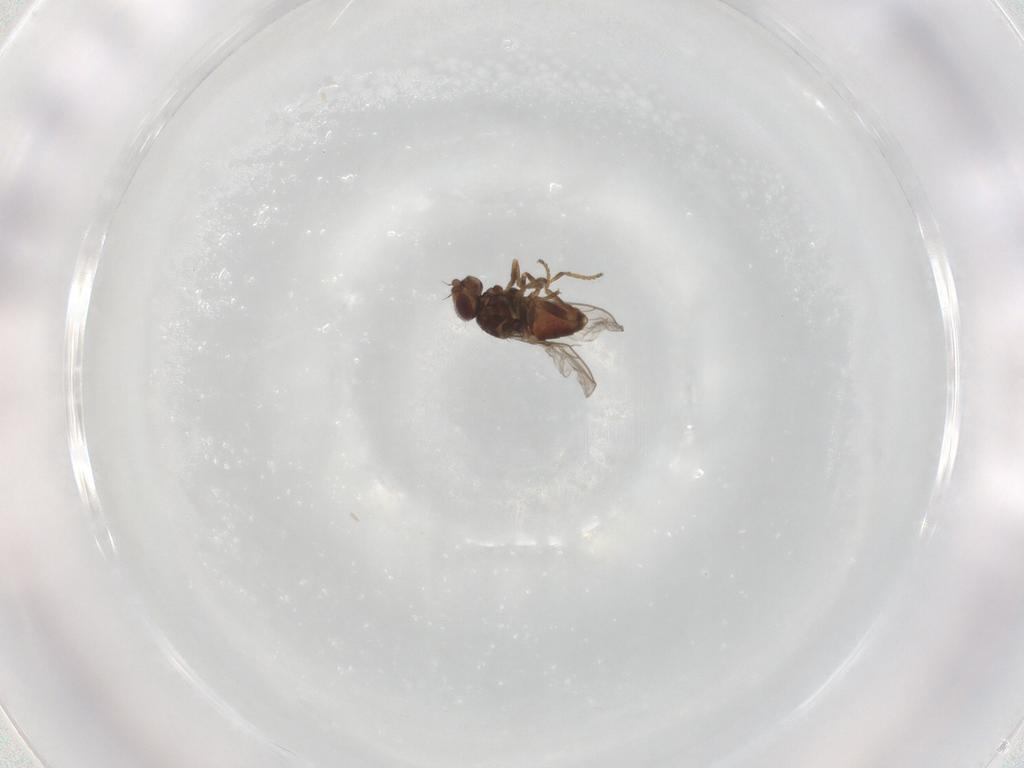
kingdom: Animalia
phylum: Arthropoda
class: Insecta
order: Diptera
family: Chloropidae
